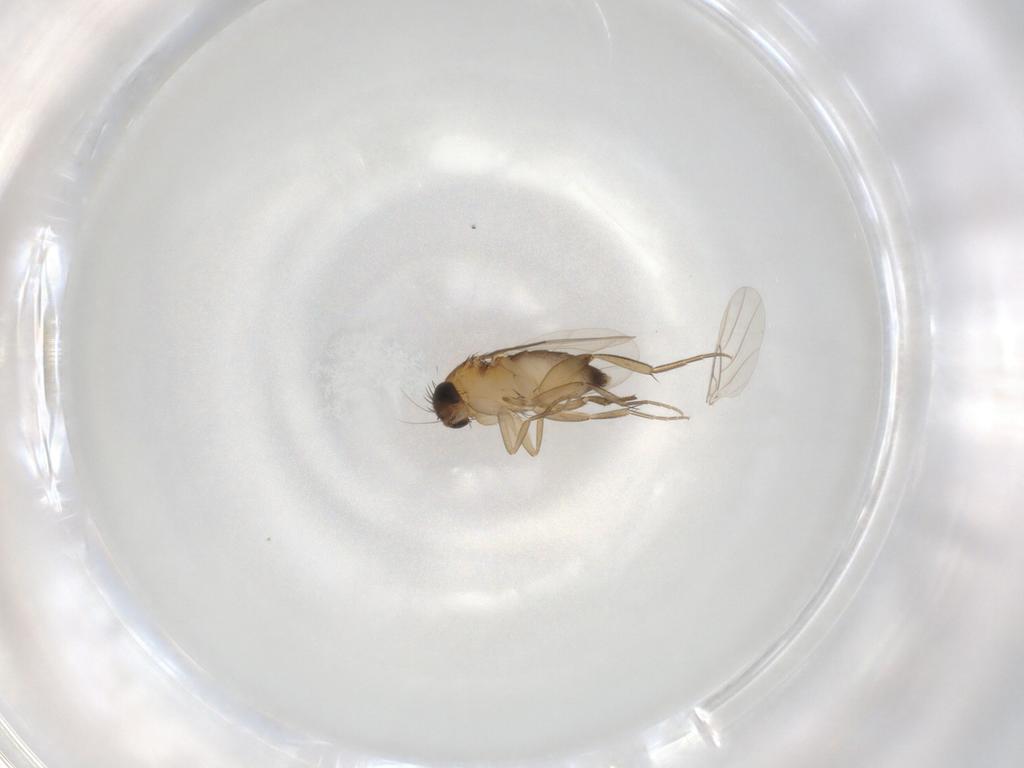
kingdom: Animalia
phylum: Arthropoda
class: Insecta
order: Diptera
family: Phoridae
